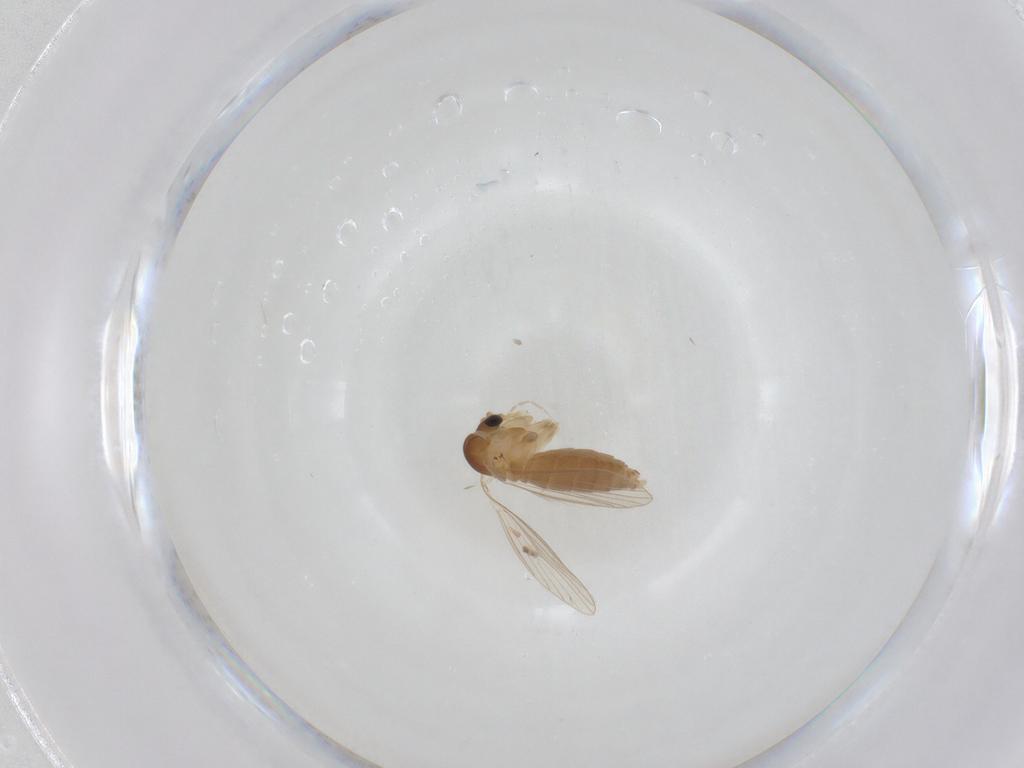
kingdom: Animalia
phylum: Arthropoda
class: Insecta
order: Diptera
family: Psychodidae
